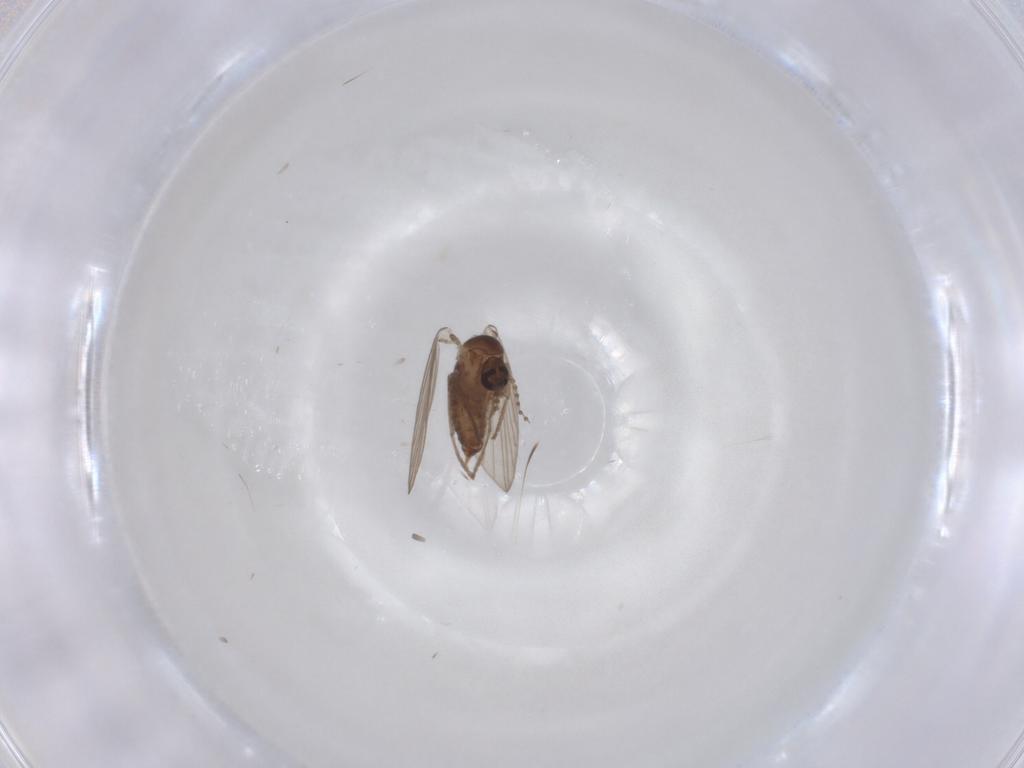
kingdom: Animalia
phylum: Arthropoda
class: Insecta
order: Diptera
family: Psychodidae
